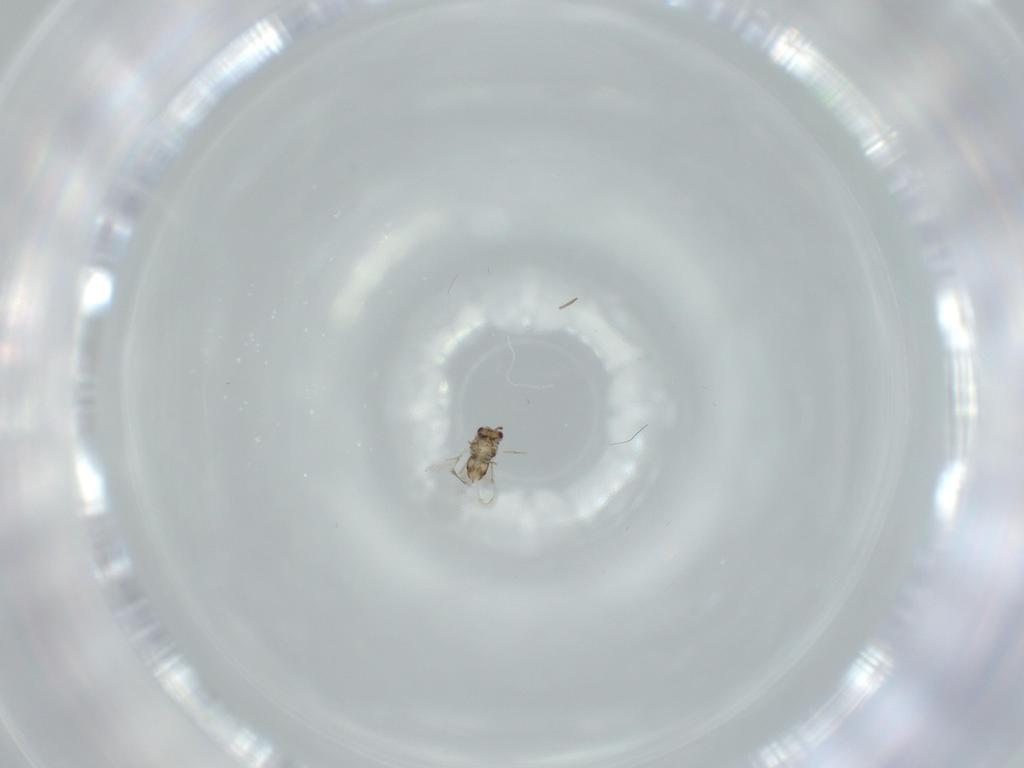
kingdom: Animalia
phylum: Arthropoda
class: Insecta
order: Hymenoptera
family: Aphelinidae
